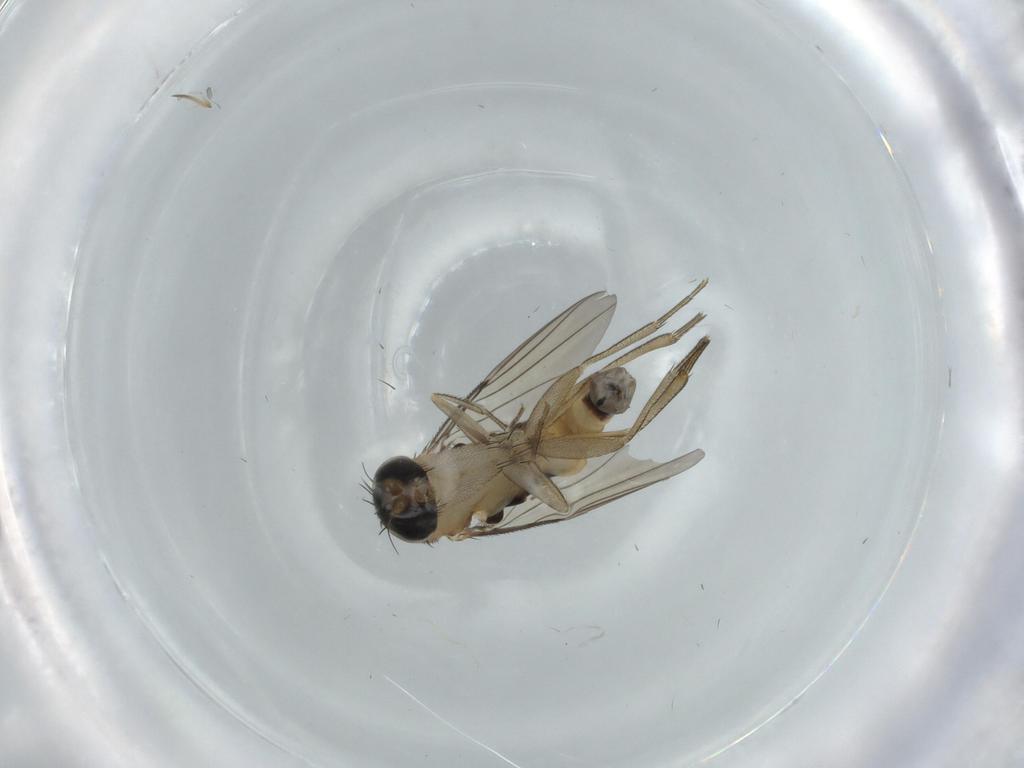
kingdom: Animalia
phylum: Arthropoda
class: Insecta
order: Diptera
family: Phoridae
